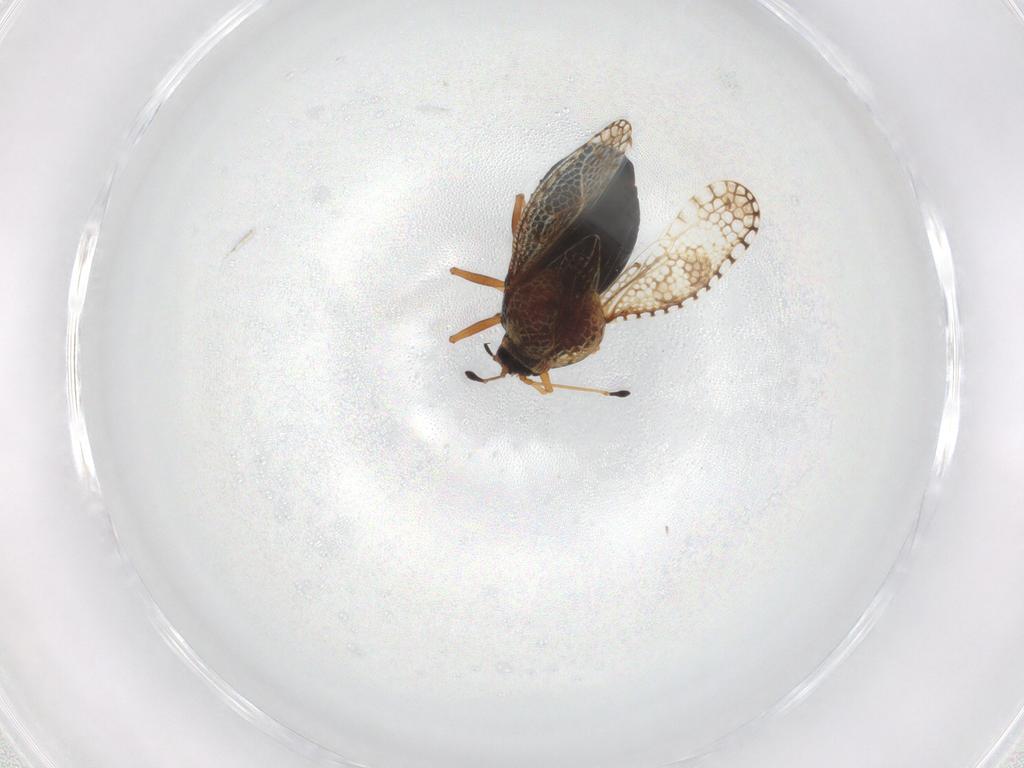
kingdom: Animalia
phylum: Arthropoda
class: Insecta
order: Hemiptera
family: Tingidae
